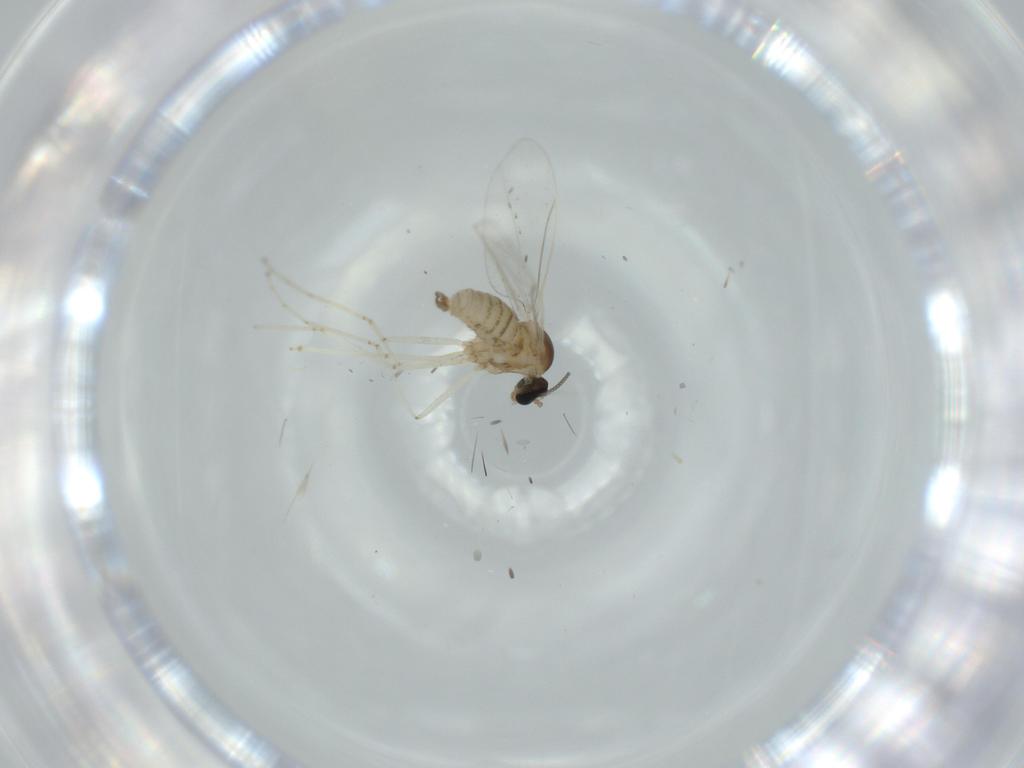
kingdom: Animalia
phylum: Arthropoda
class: Insecta
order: Diptera
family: Cecidomyiidae
